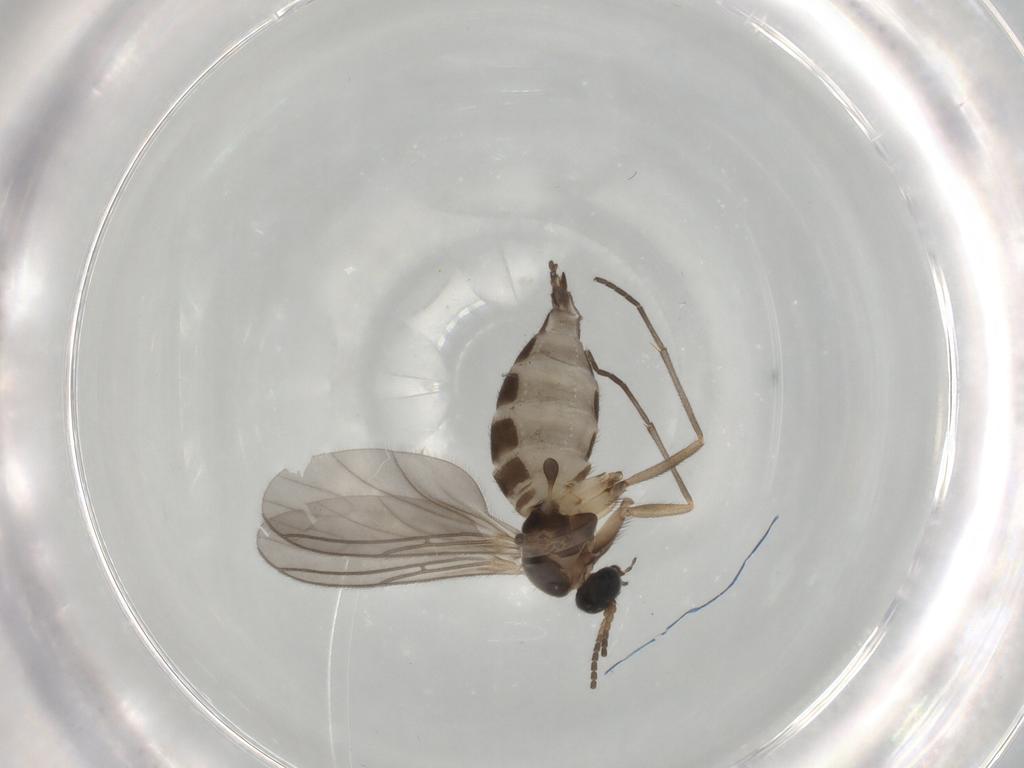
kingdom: Animalia
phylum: Arthropoda
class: Insecta
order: Diptera
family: Sciaridae
